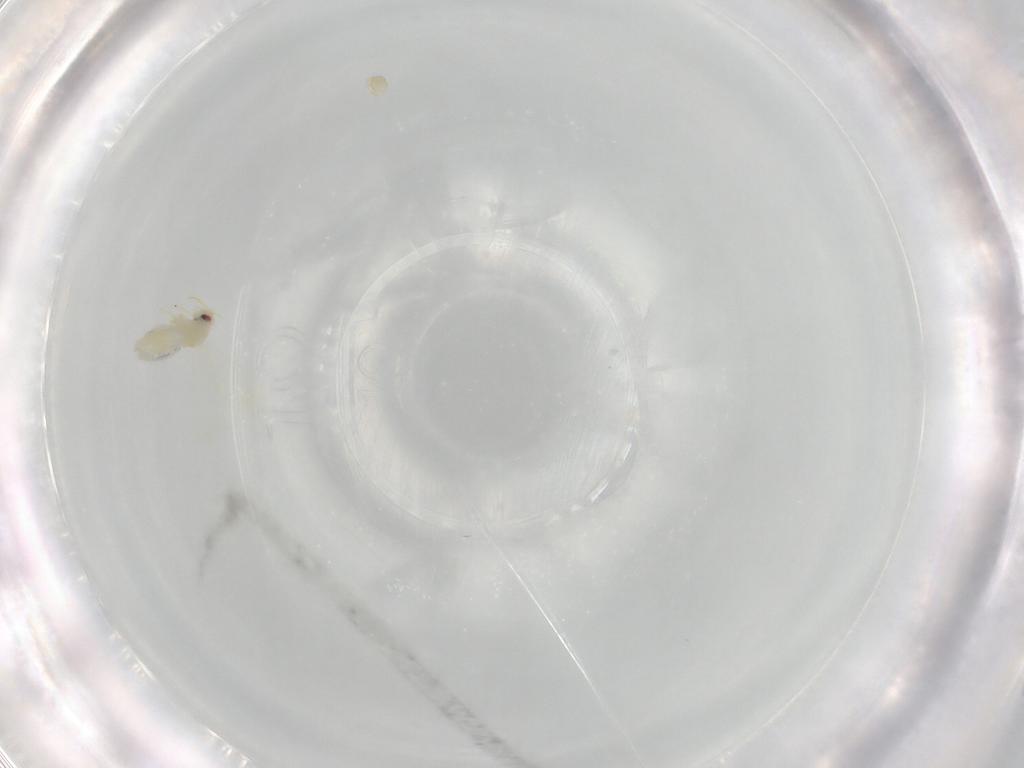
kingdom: Animalia
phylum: Arthropoda
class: Insecta
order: Hemiptera
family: Aleyrodidae
